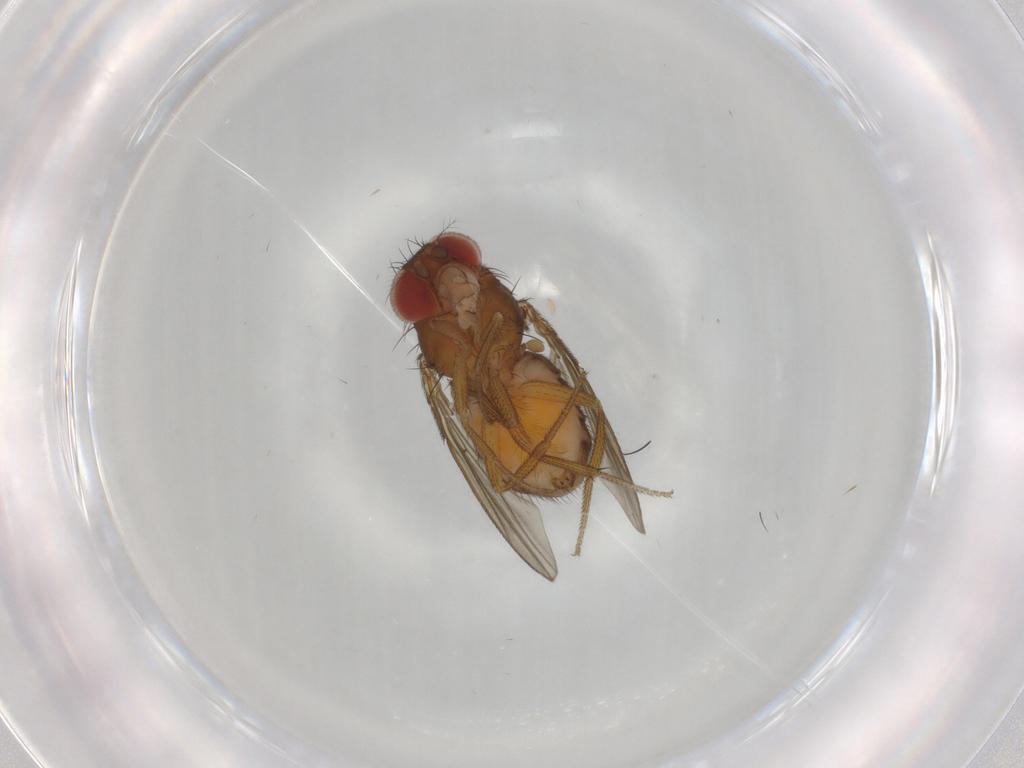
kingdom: Animalia
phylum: Arthropoda
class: Insecta
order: Diptera
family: Drosophilidae
